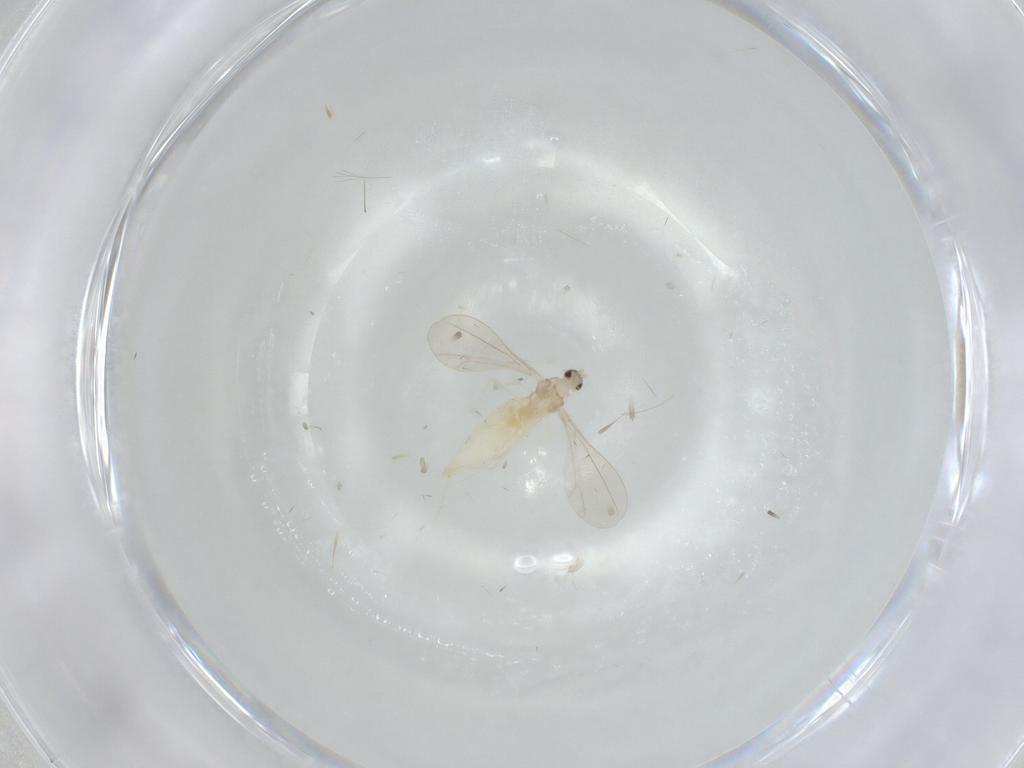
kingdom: Animalia
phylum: Arthropoda
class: Insecta
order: Diptera
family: Cecidomyiidae
